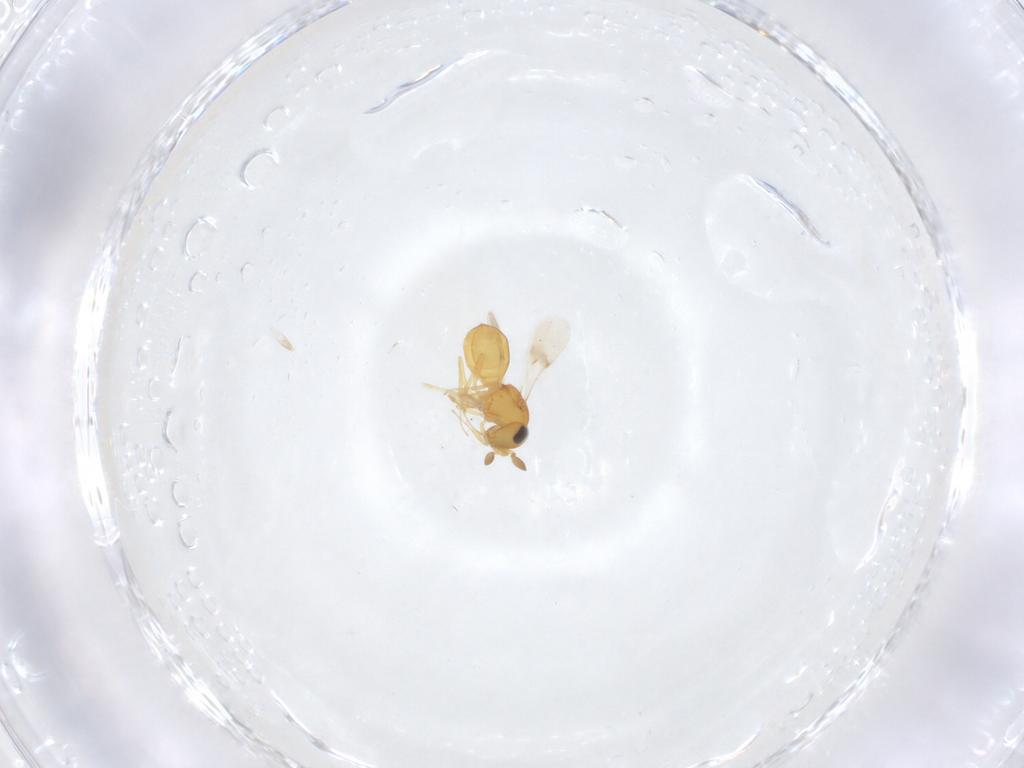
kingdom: Animalia
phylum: Arthropoda
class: Insecta
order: Hymenoptera
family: Scelionidae
